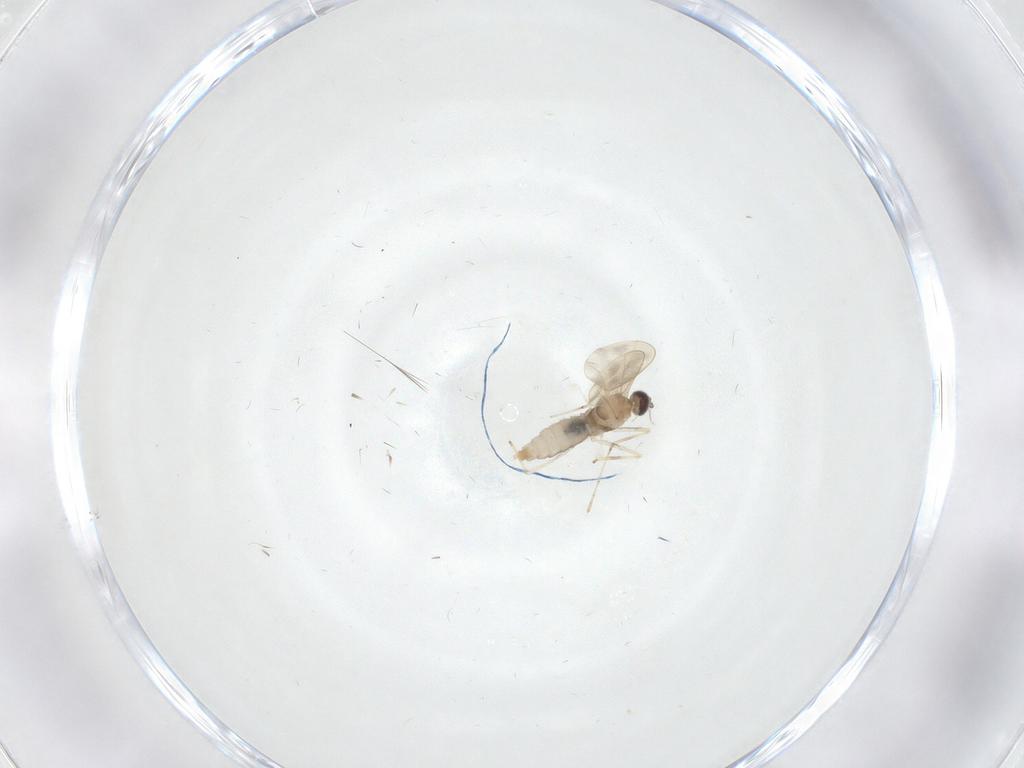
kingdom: Animalia
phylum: Arthropoda
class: Insecta
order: Diptera
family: Cecidomyiidae
